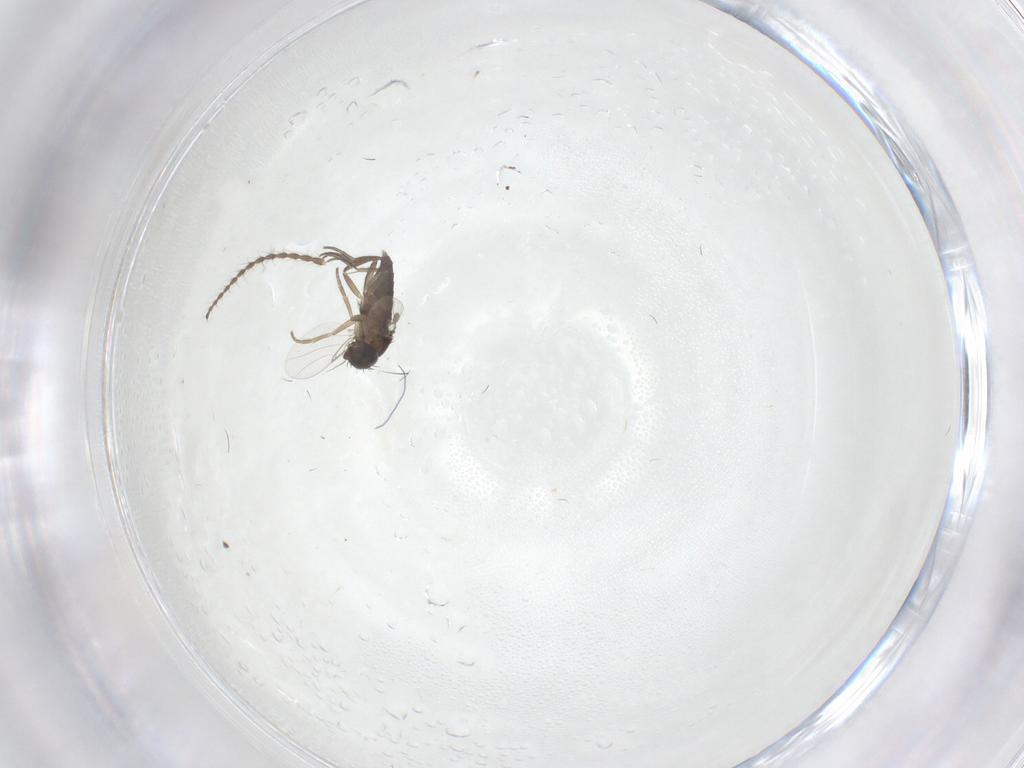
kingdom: Animalia
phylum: Arthropoda
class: Insecta
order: Diptera
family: Phoridae
